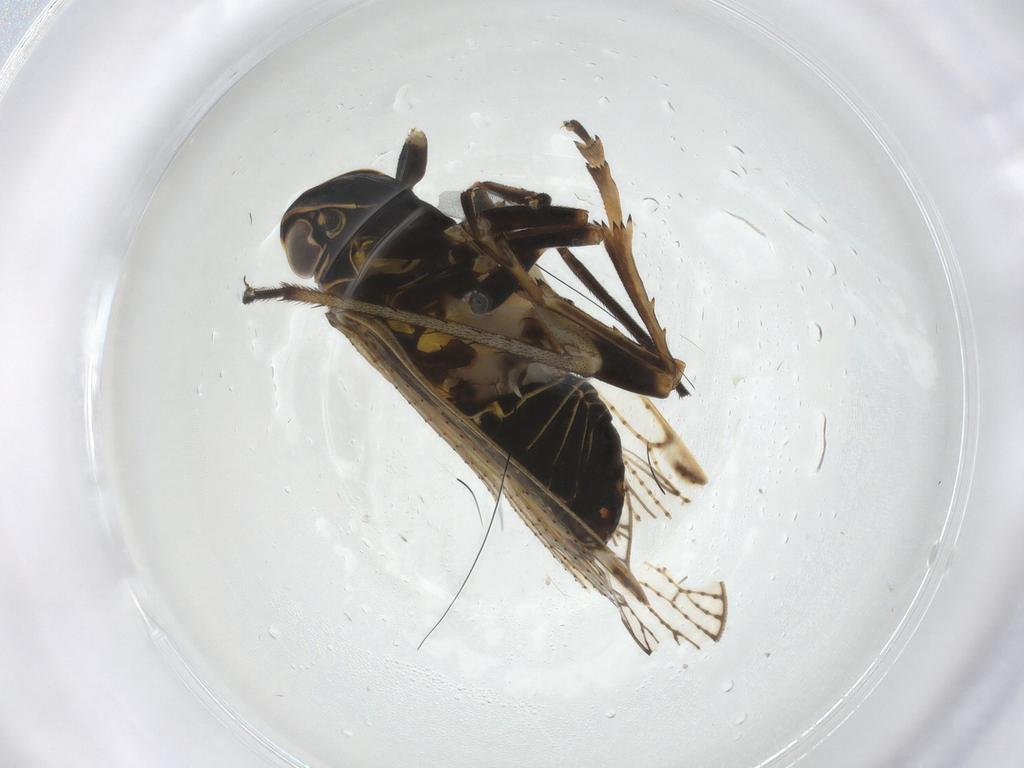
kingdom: Animalia
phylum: Arthropoda
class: Insecta
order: Hemiptera
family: Cixiidae
